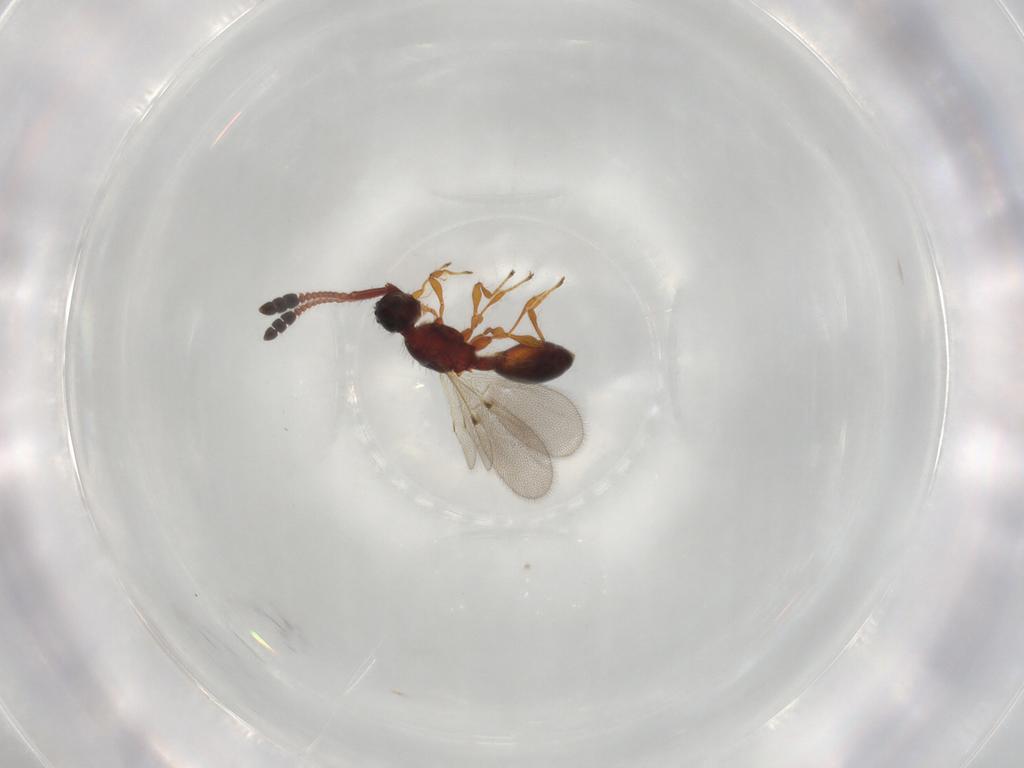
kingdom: Animalia
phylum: Arthropoda
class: Insecta
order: Hymenoptera
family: Diapriidae
